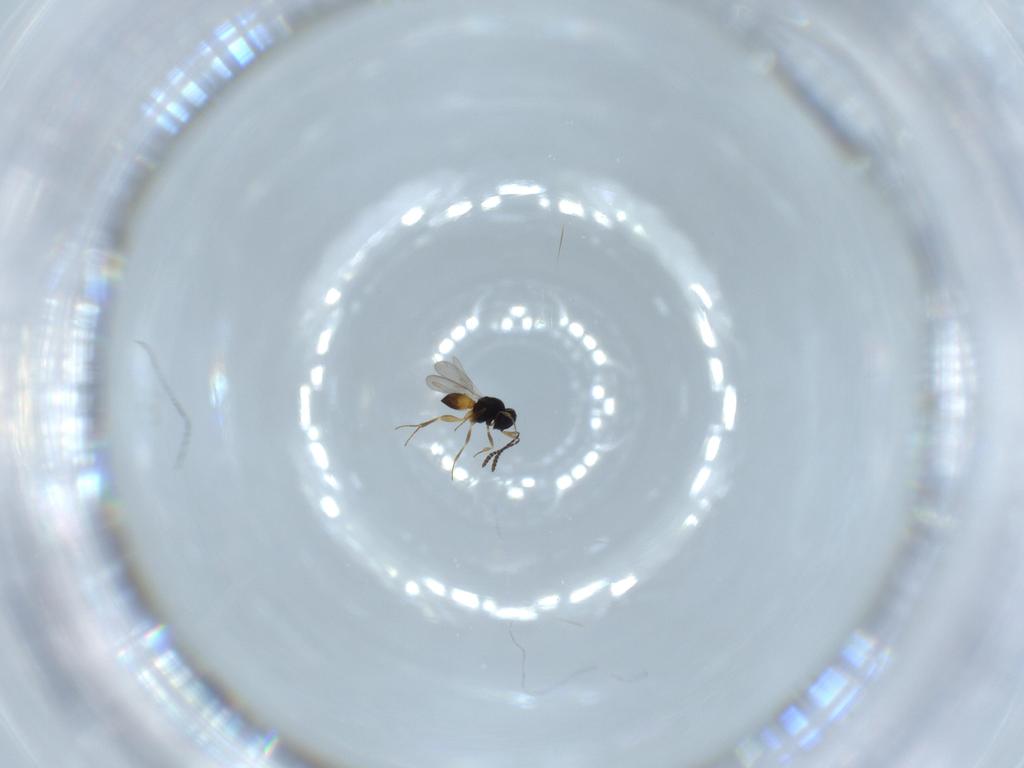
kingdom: Animalia
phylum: Arthropoda
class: Insecta
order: Hymenoptera
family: Scelionidae
